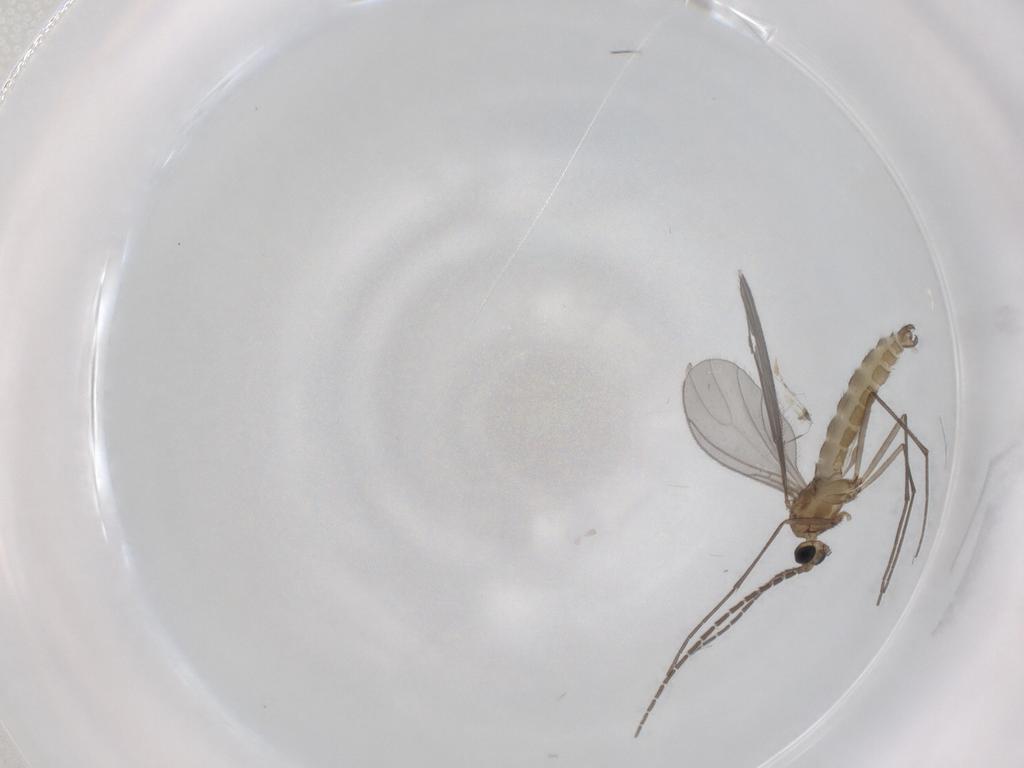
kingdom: Animalia
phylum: Arthropoda
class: Insecta
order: Diptera
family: Sciaridae
